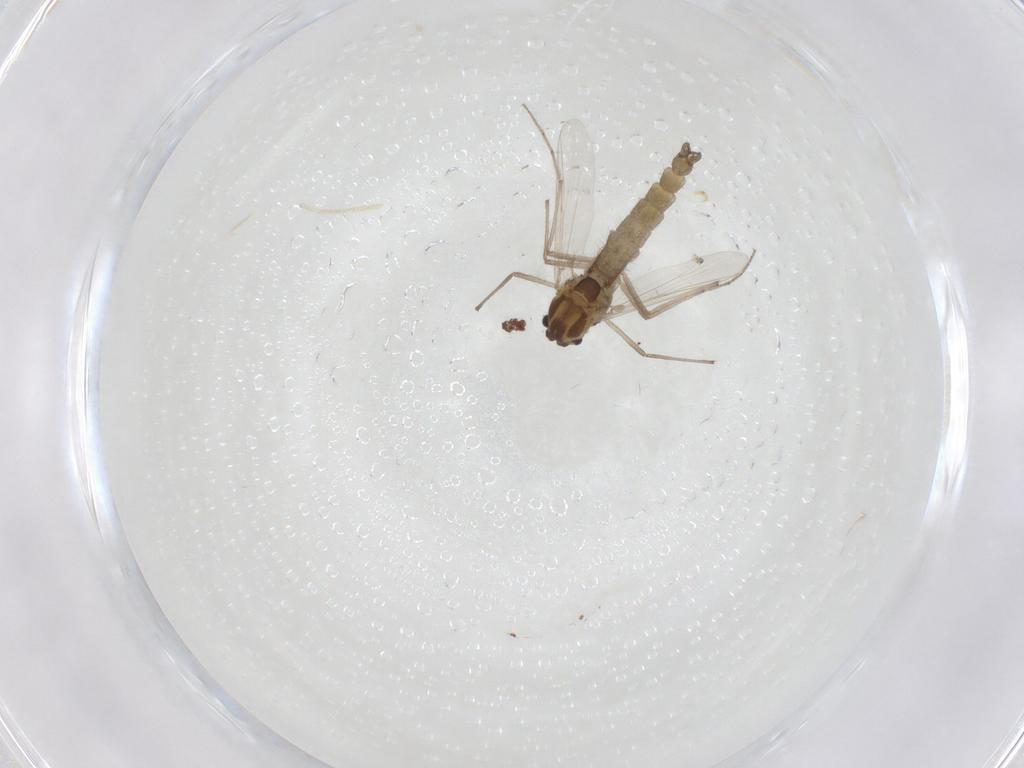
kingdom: Animalia
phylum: Arthropoda
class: Insecta
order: Diptera
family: Chironomidae
